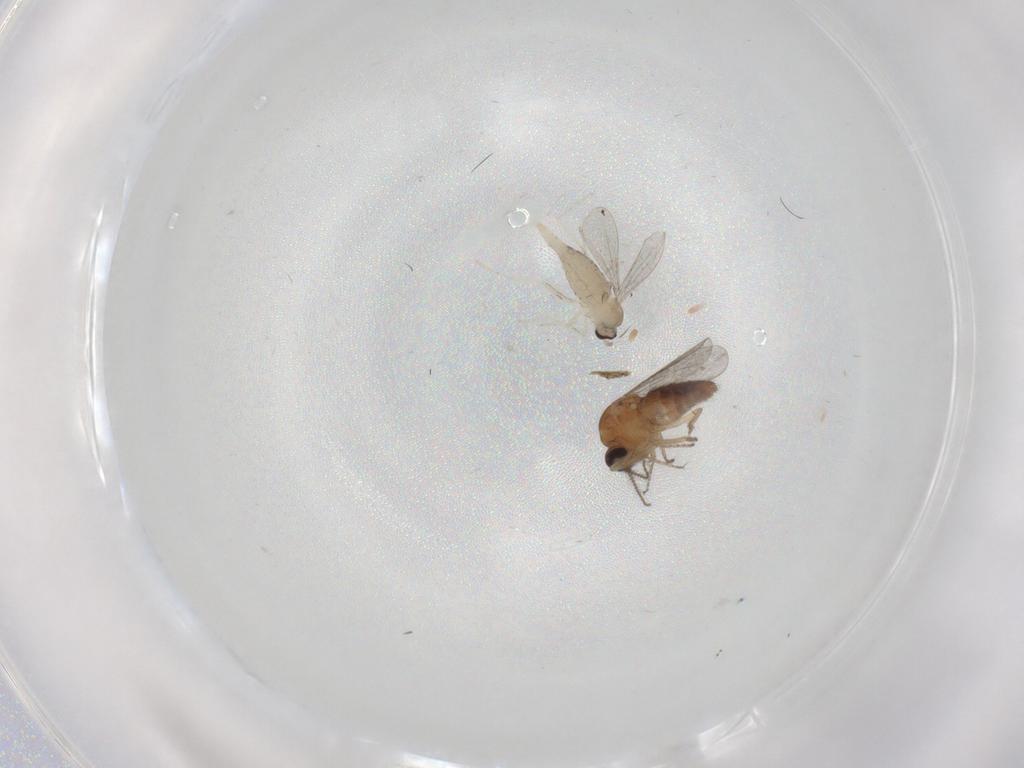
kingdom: Animalia
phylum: Arthropoda
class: Insecta
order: Diptera
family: Ceratopogonidae
